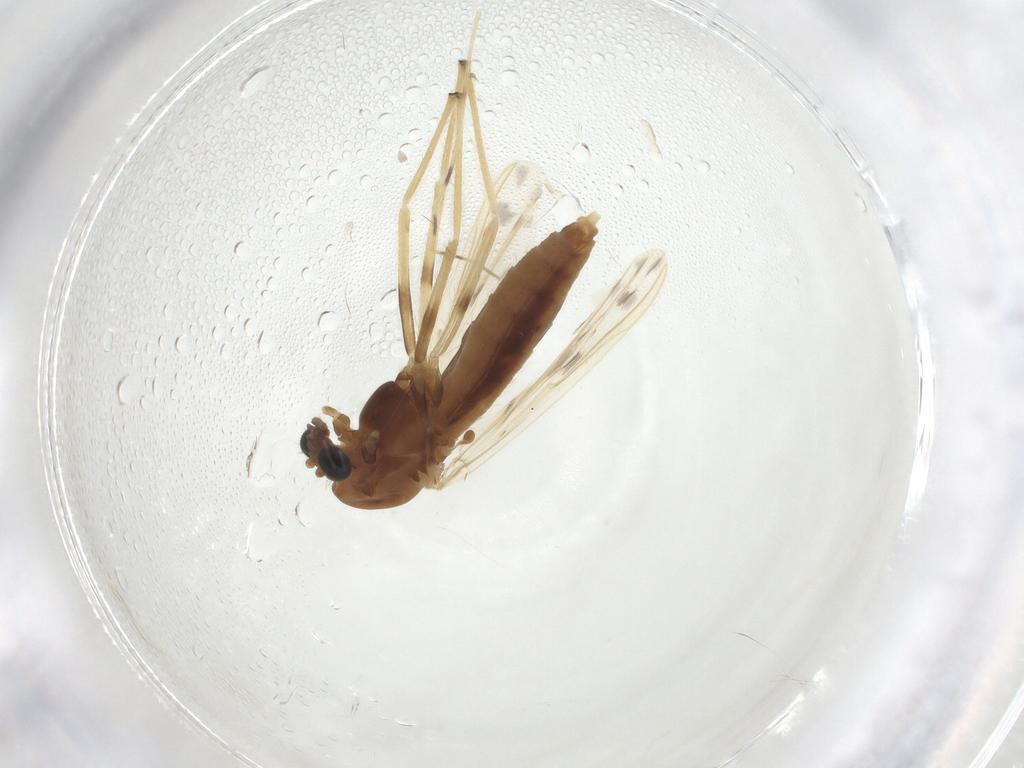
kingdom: Animalia
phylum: Arthropoda
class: Insecta
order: Diptera
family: Chironomidae
